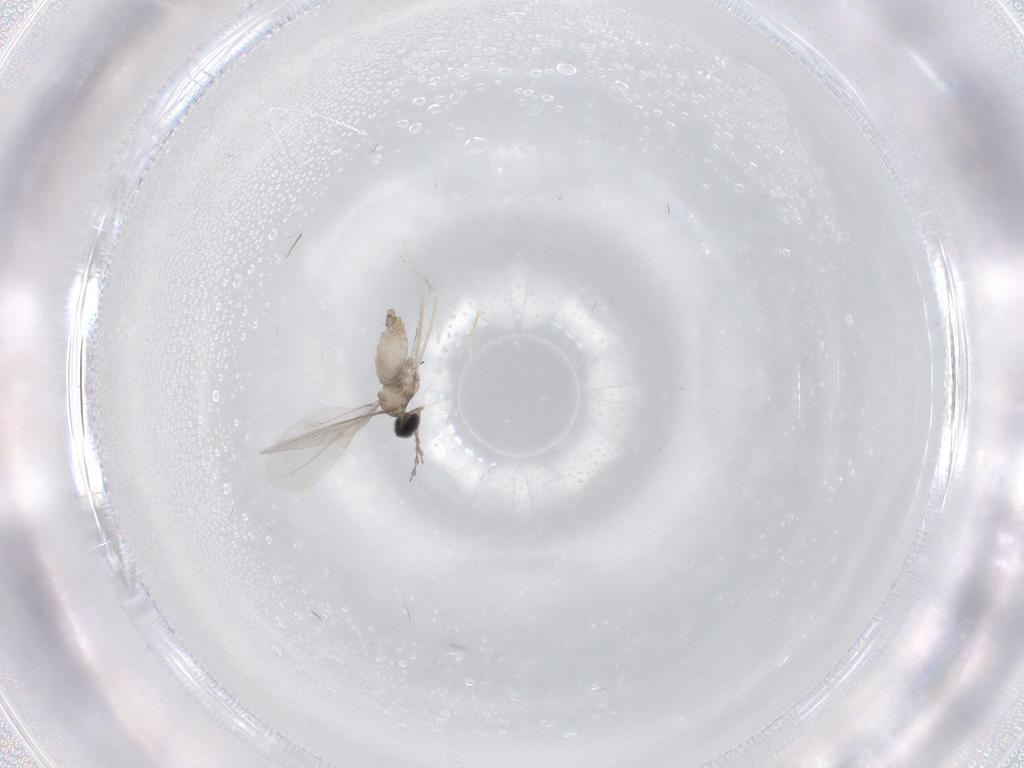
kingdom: Animalia
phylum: Arthropoda
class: Insecta
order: Diptera
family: Cecidomyiidae
